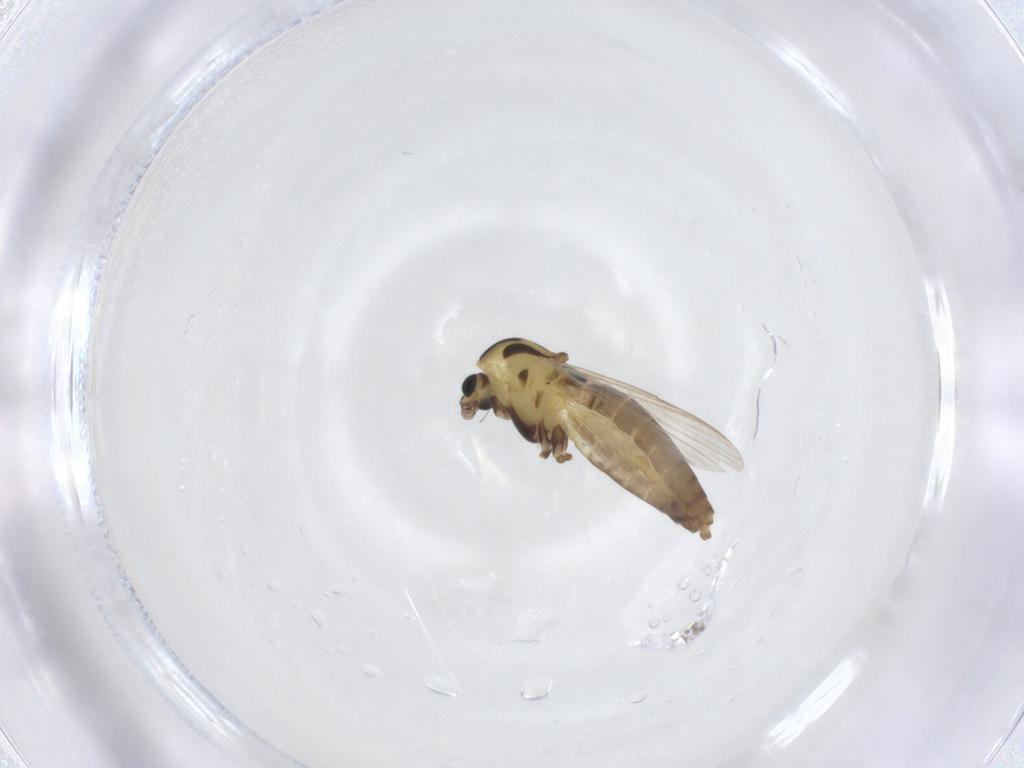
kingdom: Animalia
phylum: Arthropoda
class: Insecta
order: Diptera
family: Chironomidae
